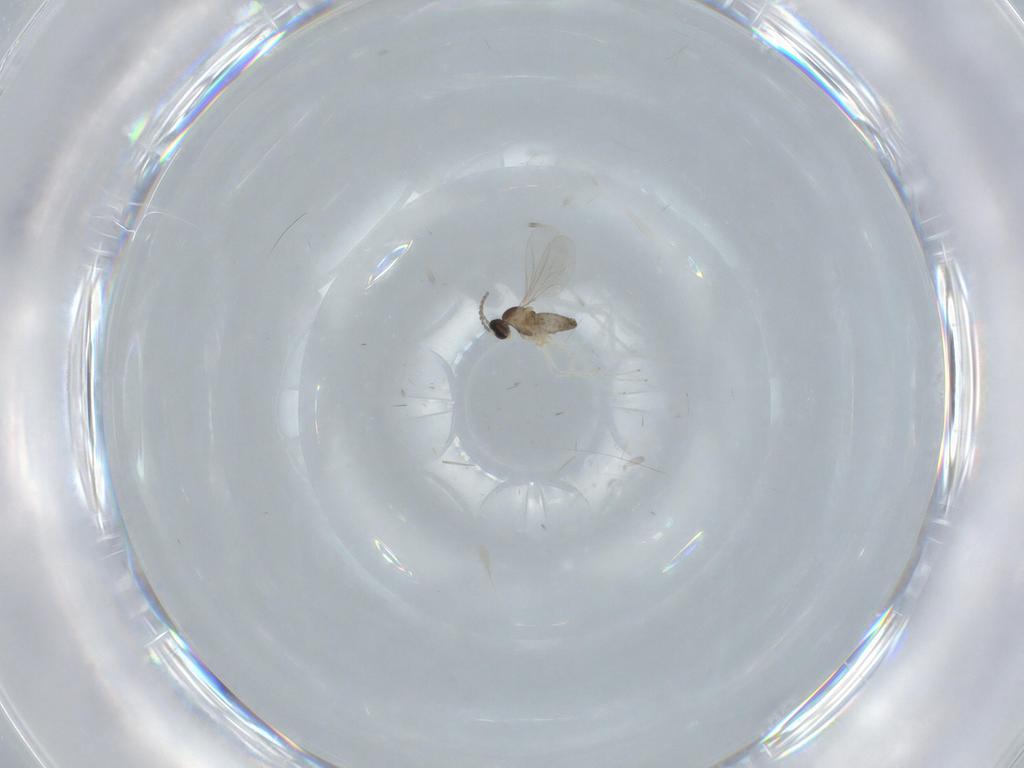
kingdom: Animalia
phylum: Arthropoda
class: Insecta
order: Diptera
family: Cecidomyiidae
